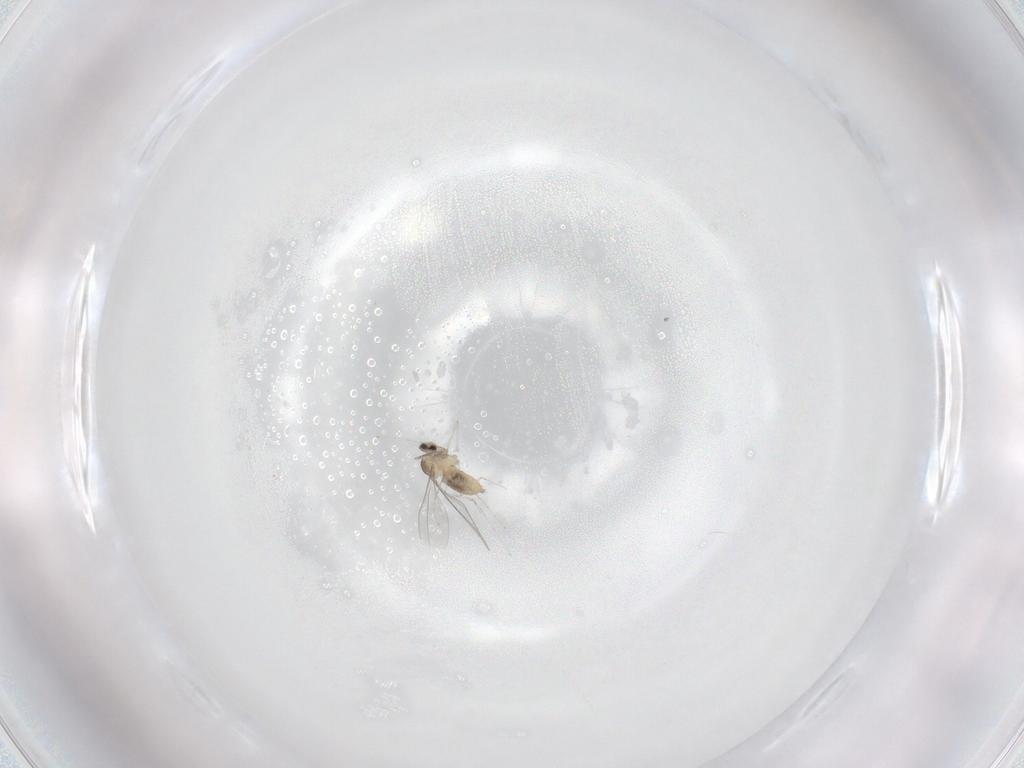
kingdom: Animalia
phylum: Arthropoda
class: Insecta
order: Diptera
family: Cecidomyiidae
